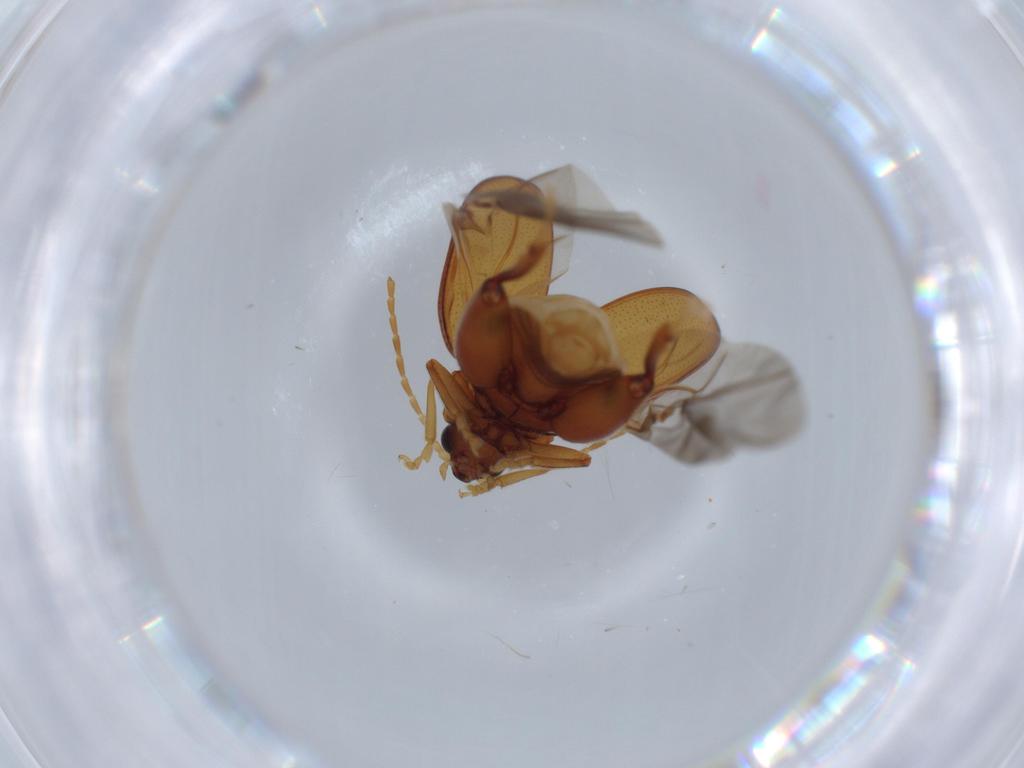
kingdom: Animalia
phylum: Arthropoda
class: Insecta
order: Coleoptera
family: Chrysomelidae
